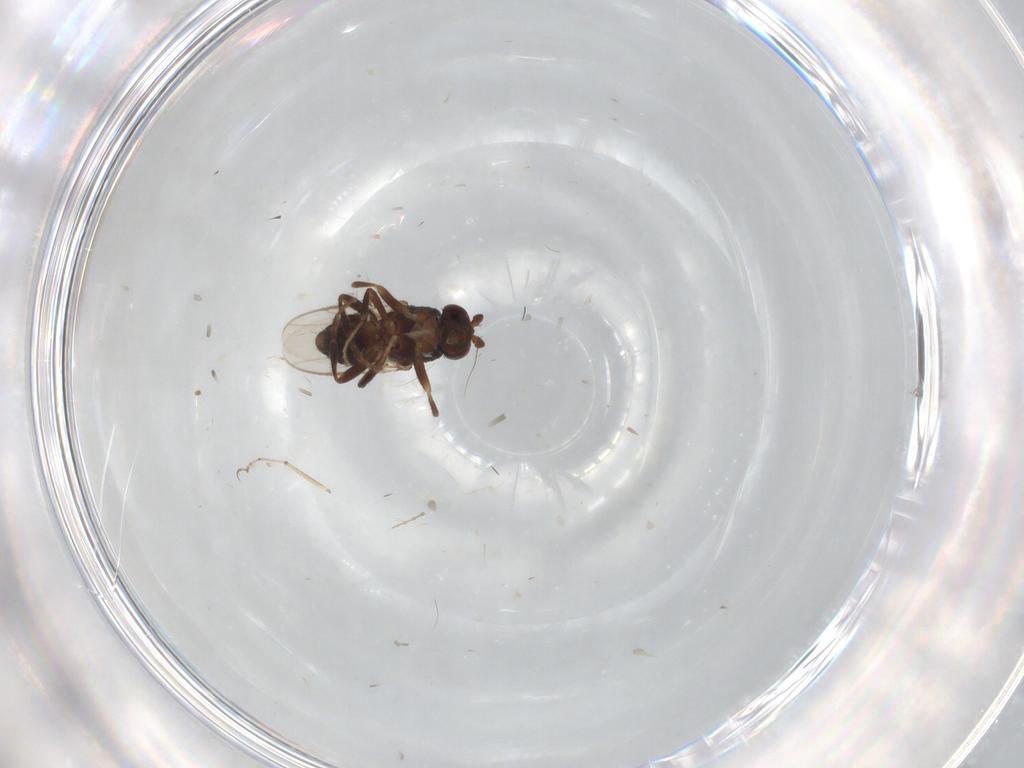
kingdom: Animalia
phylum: Arthropoda
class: Insecta
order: Diptera
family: Sphaeroceridae
